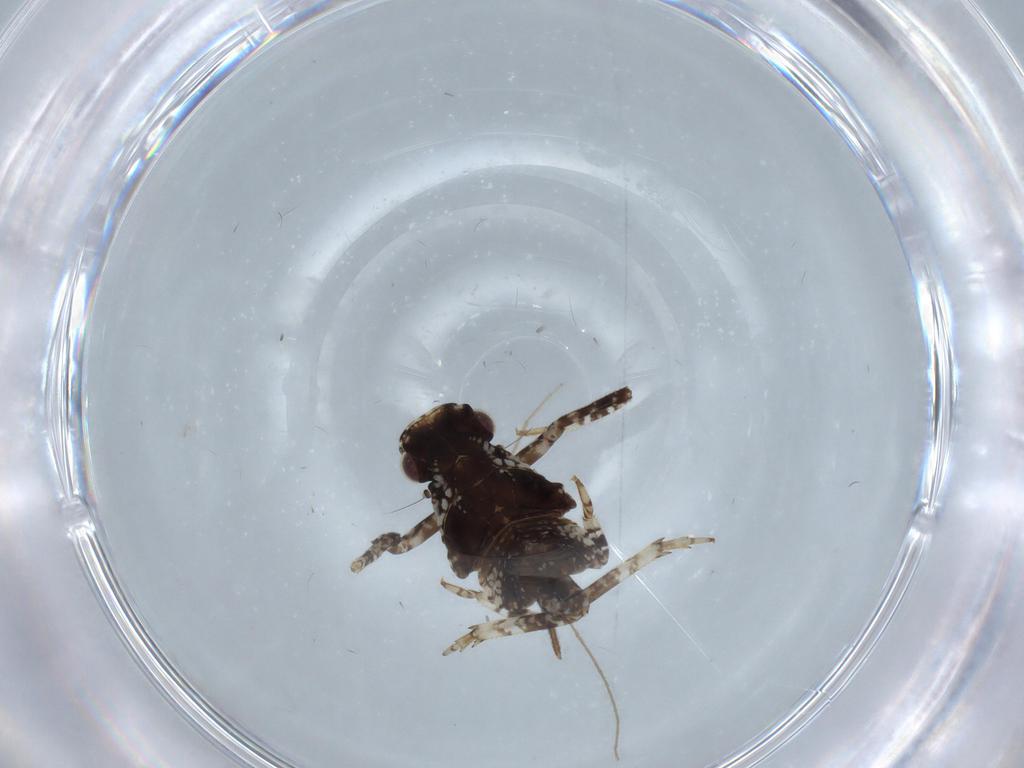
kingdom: Animalia
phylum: Arthropoda
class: Insecta
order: Hemiptera
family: Fulgoridae
